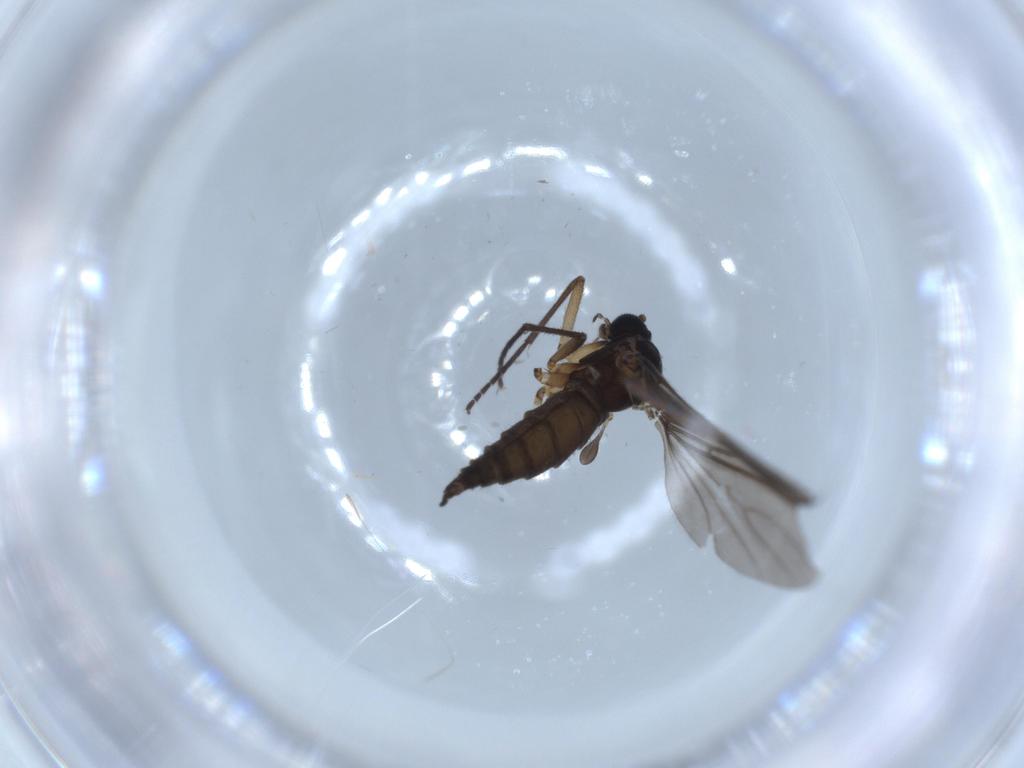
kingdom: Animalia
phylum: Arthropoda
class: Insecta
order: Diptera
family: Sciaridae
